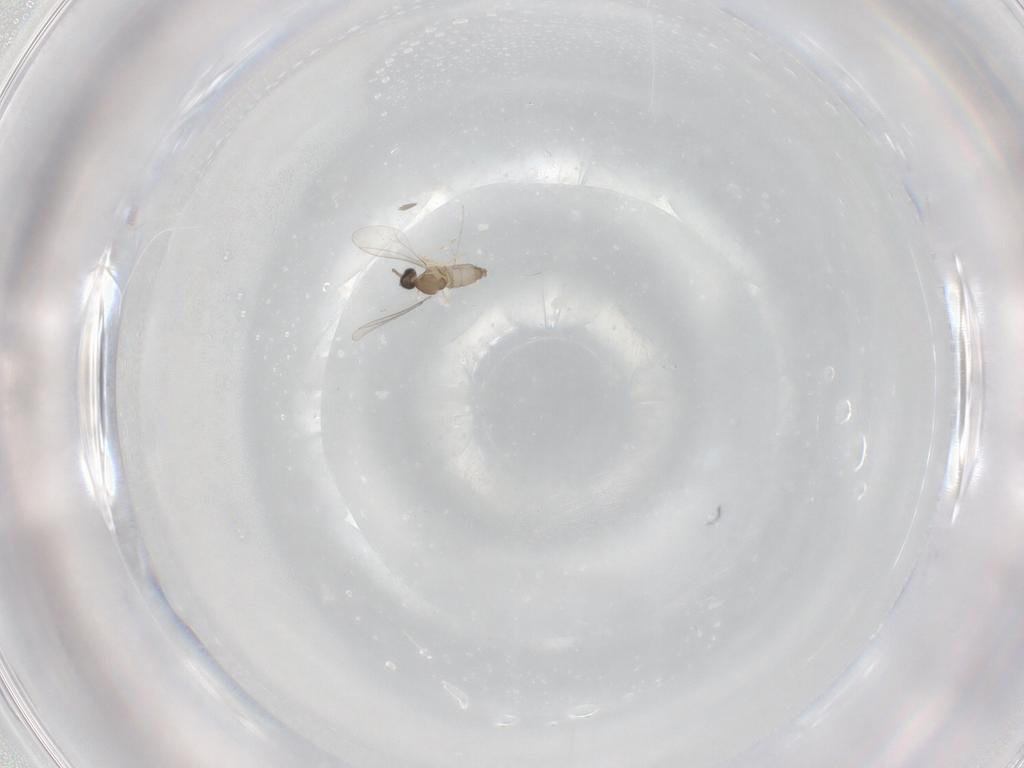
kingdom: Animalia
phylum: Arthropoda
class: Insecta
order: Diptera
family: Cecidomyiidae
